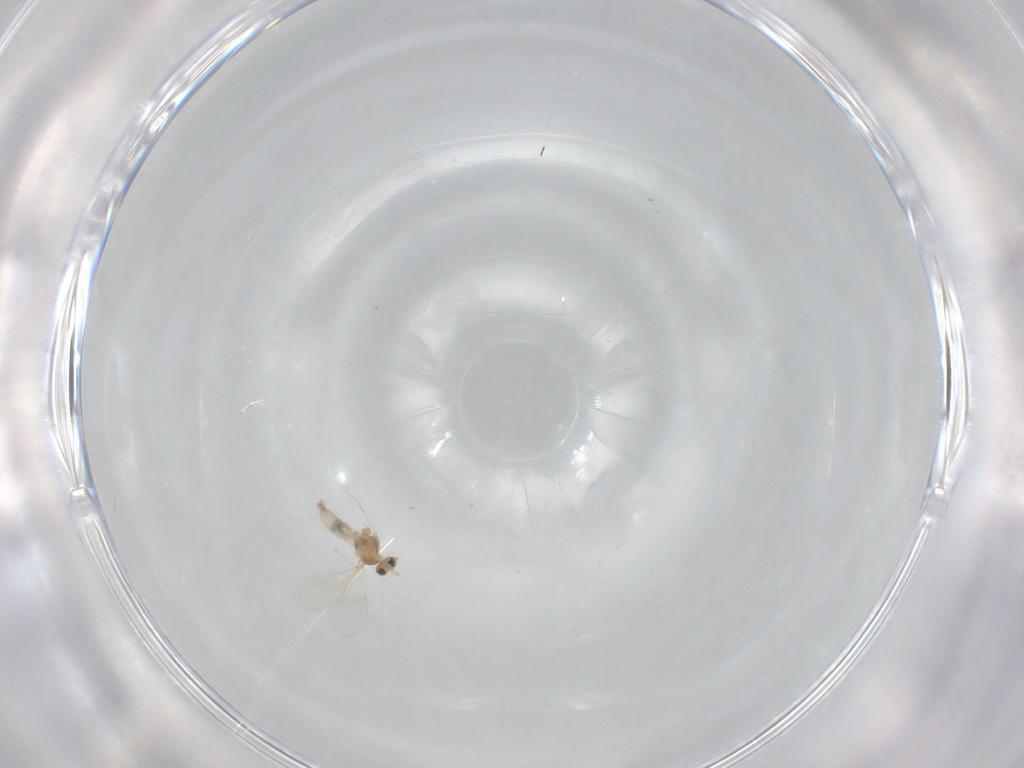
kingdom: Animalia
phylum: Arthropoda
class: Insecta
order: Diptera
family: Cecidomyiidae
